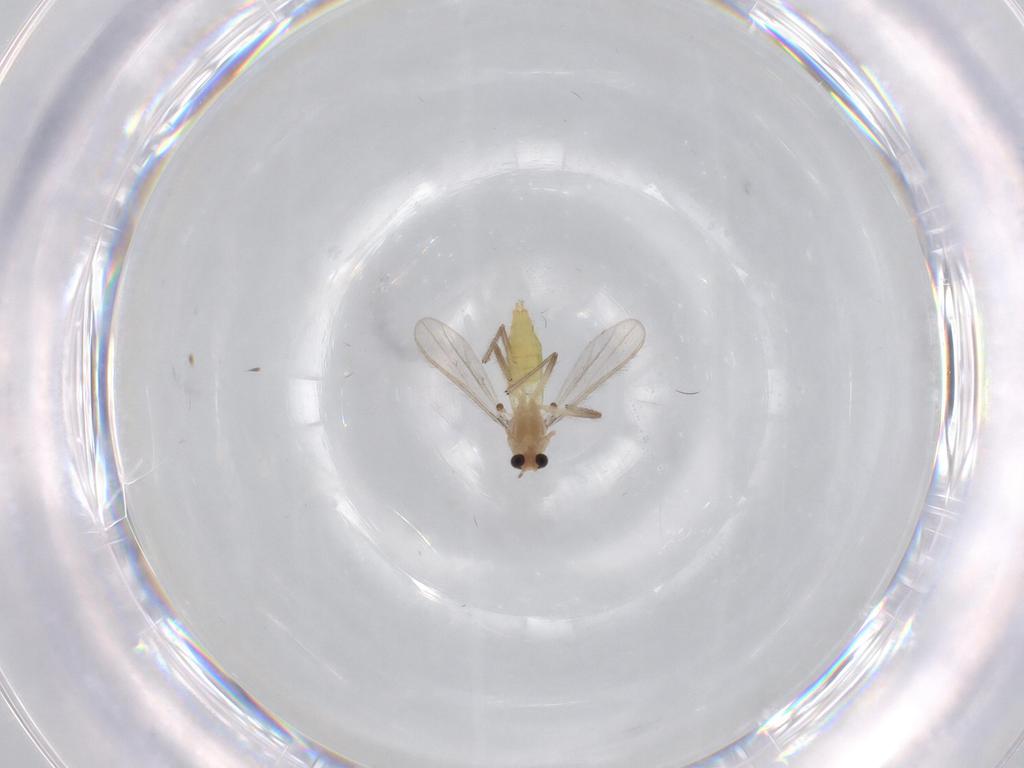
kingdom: Animalia
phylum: Arthropoda
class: Insecta
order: Diptera
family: Chironomidae
